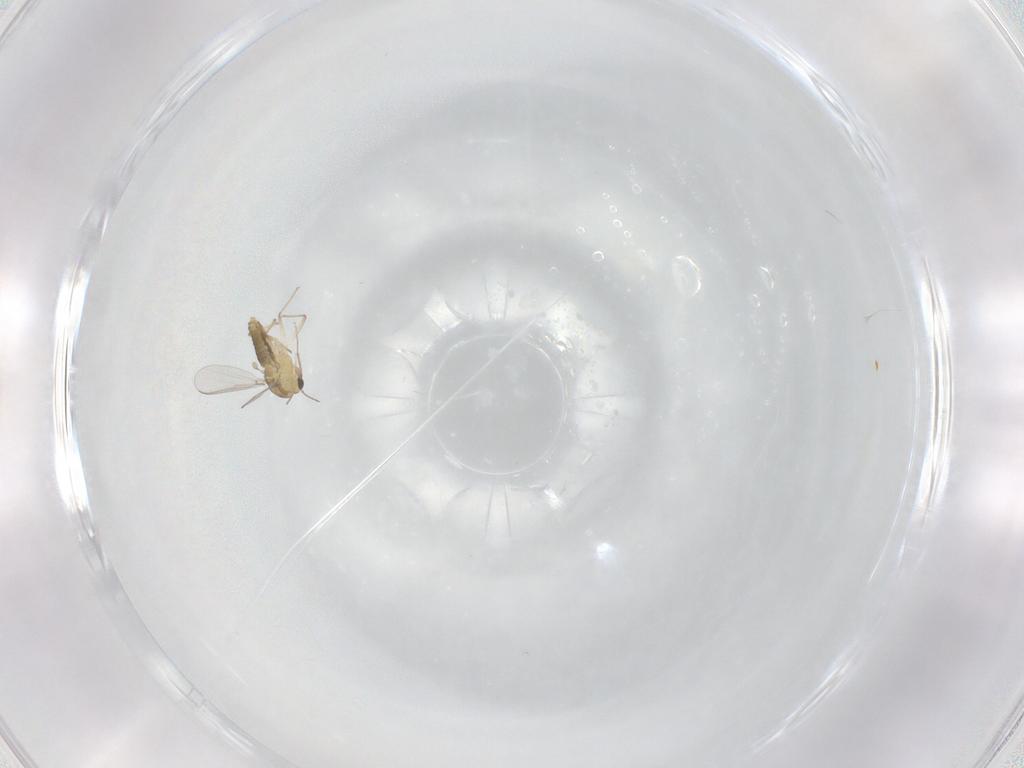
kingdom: Animalia
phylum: Arthropoda
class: Insecta
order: Diptera
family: Chironomidae
